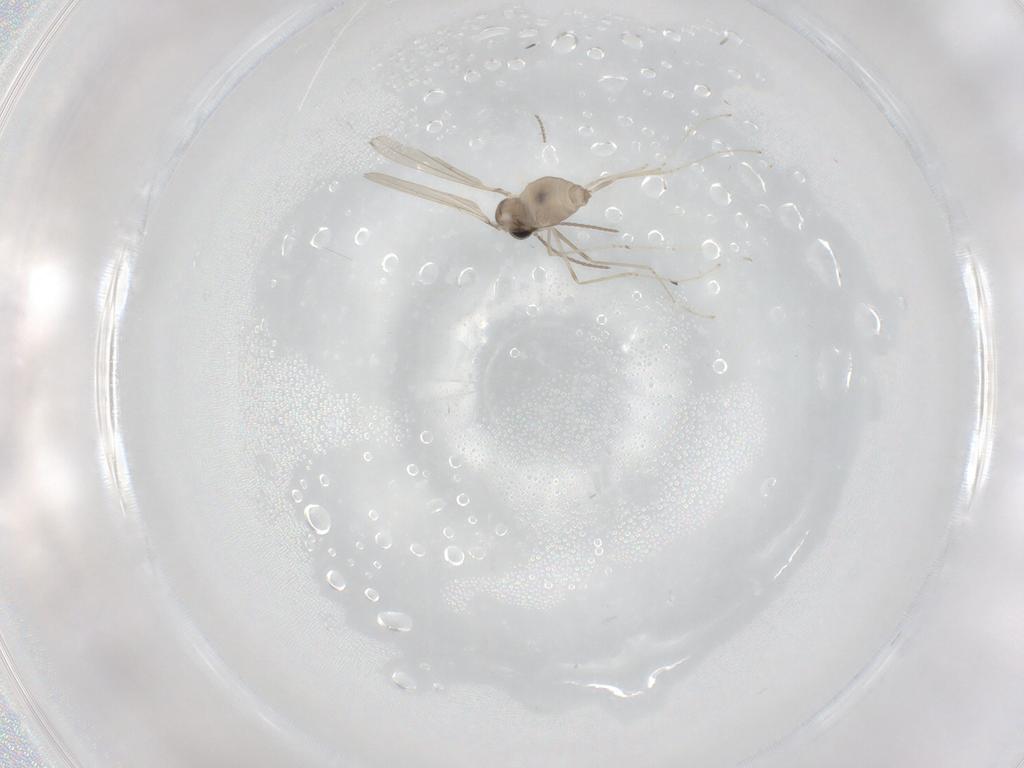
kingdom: Animalia
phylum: Arthropoda
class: Insecta
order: Diptera
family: Cecidomyiidae
